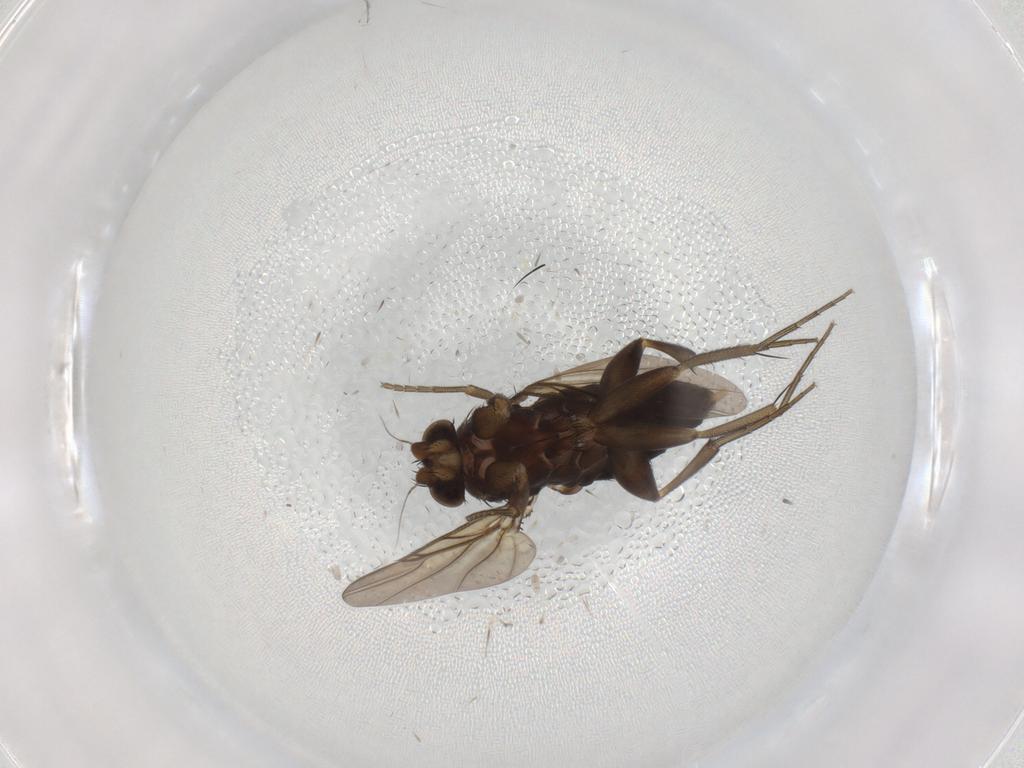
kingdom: Animalia
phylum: Arthropoda
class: Insecta
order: Diptera
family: Phoridae
